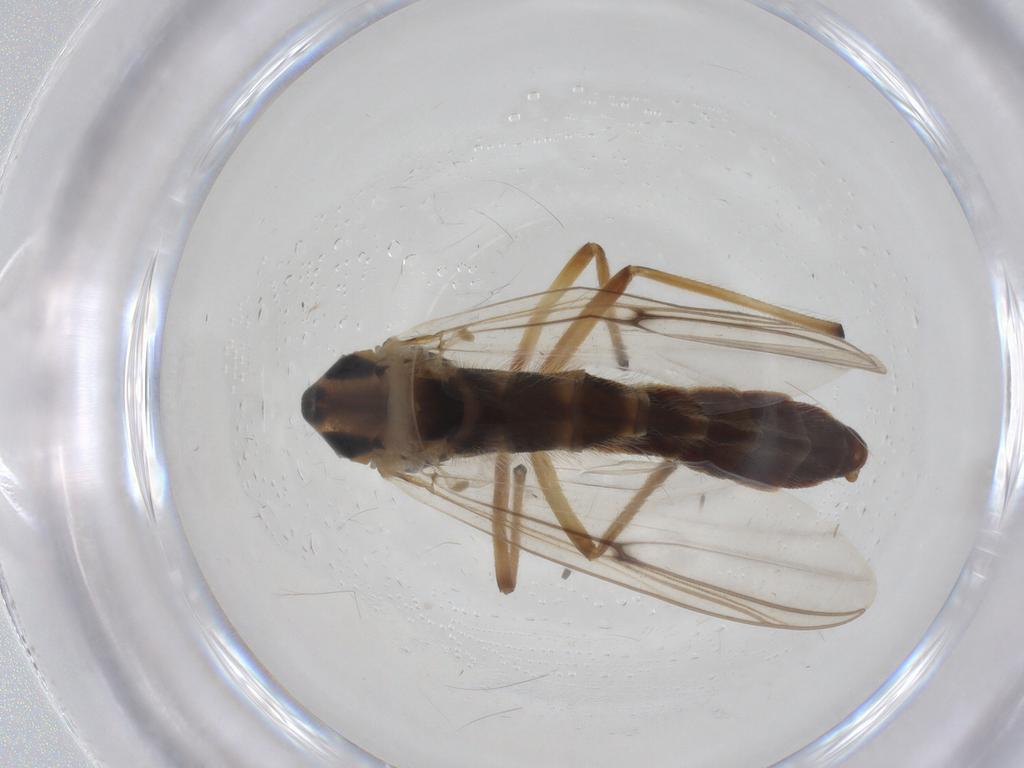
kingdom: Animalia
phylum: Arthropoda
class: Insecta
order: Diptera
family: Chironomidae
